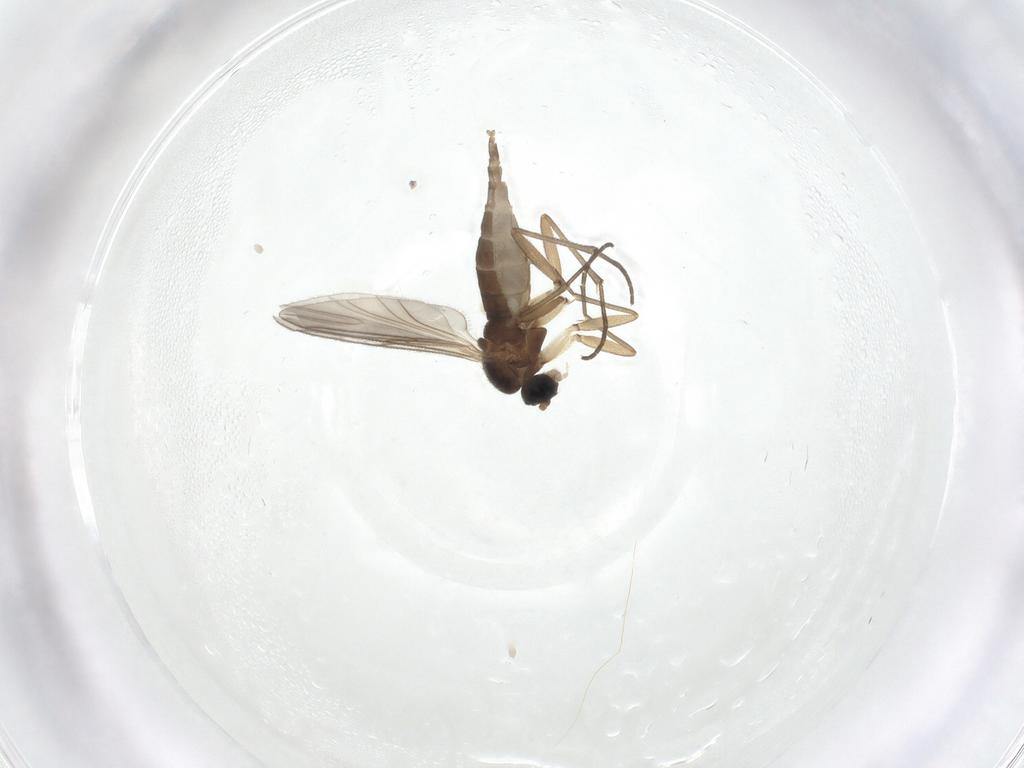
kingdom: Animalia
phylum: Arthropoda
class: Insecta
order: Diptera
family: Sciaridae
